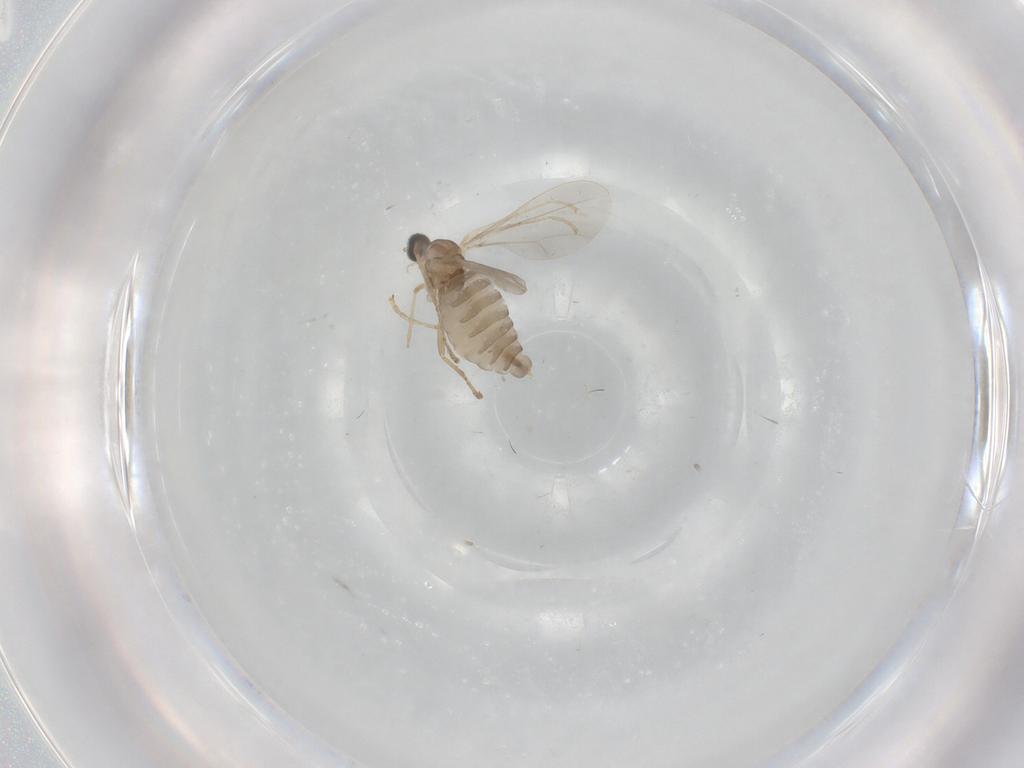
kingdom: Animalia
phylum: Arthropoda
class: Insecta
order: Diptera
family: Cecidomyiidae
